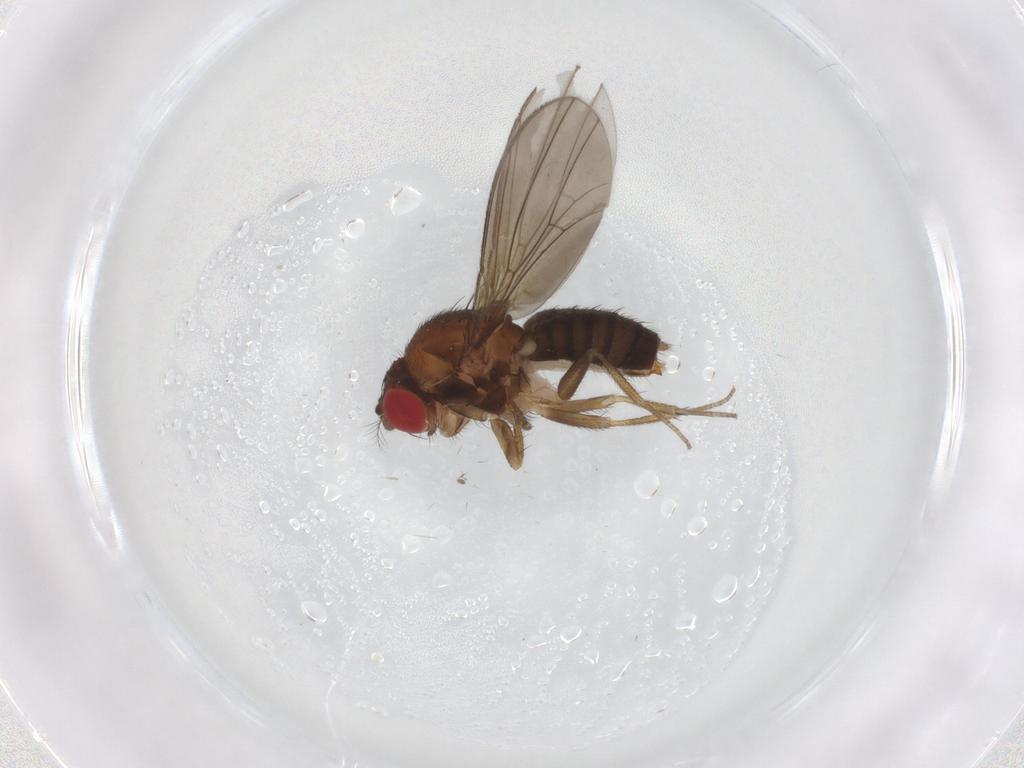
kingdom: Animalia
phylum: Arthropoda
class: Insecta
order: Diptera
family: Drosophilidae
